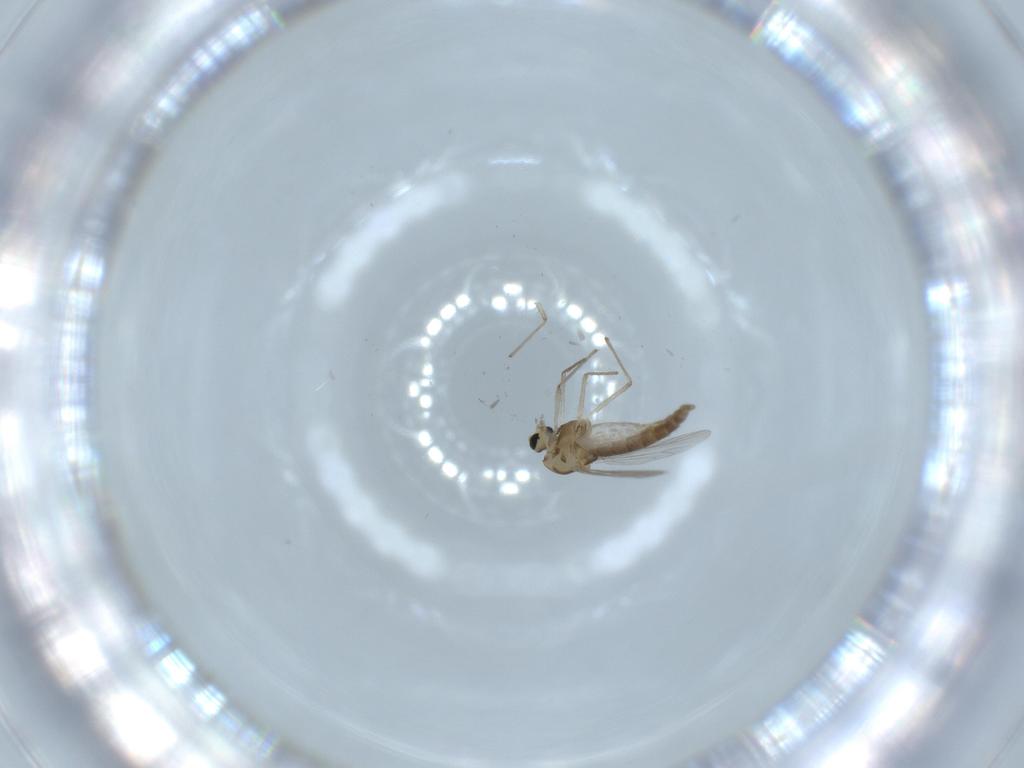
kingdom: Animalia
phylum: Arthropoda
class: Insecta
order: Diptera
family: Chironomidae
